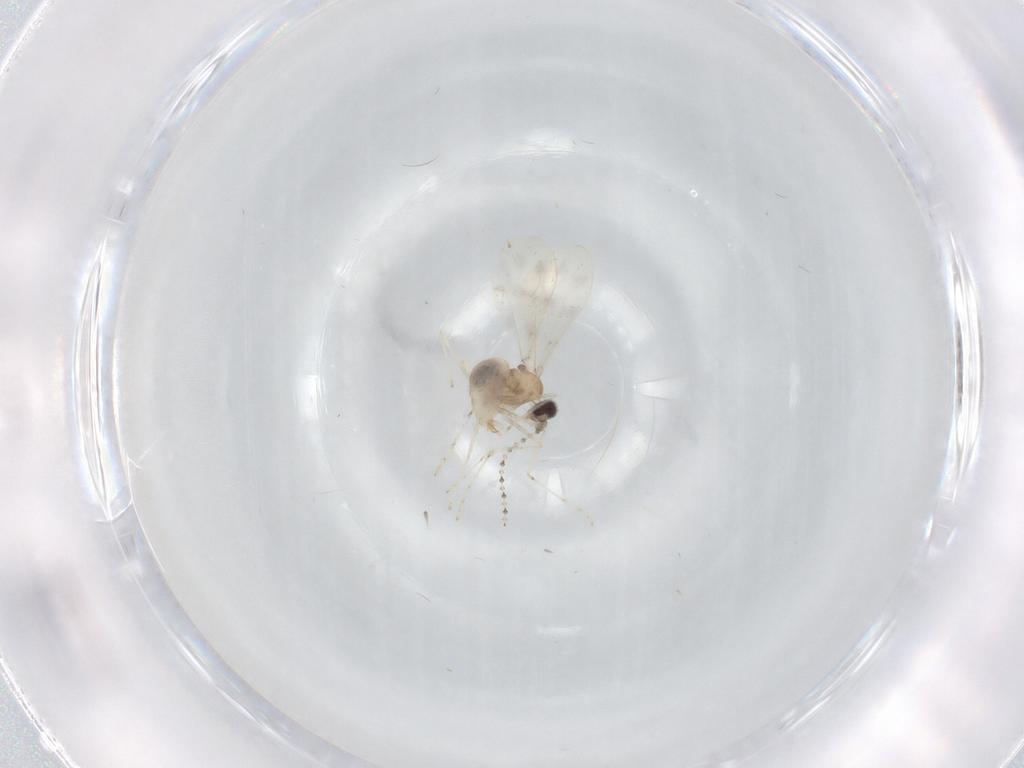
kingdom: Animalia
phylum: Arthropoda
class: Insecta
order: Diptera
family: Cecidomyiidae
